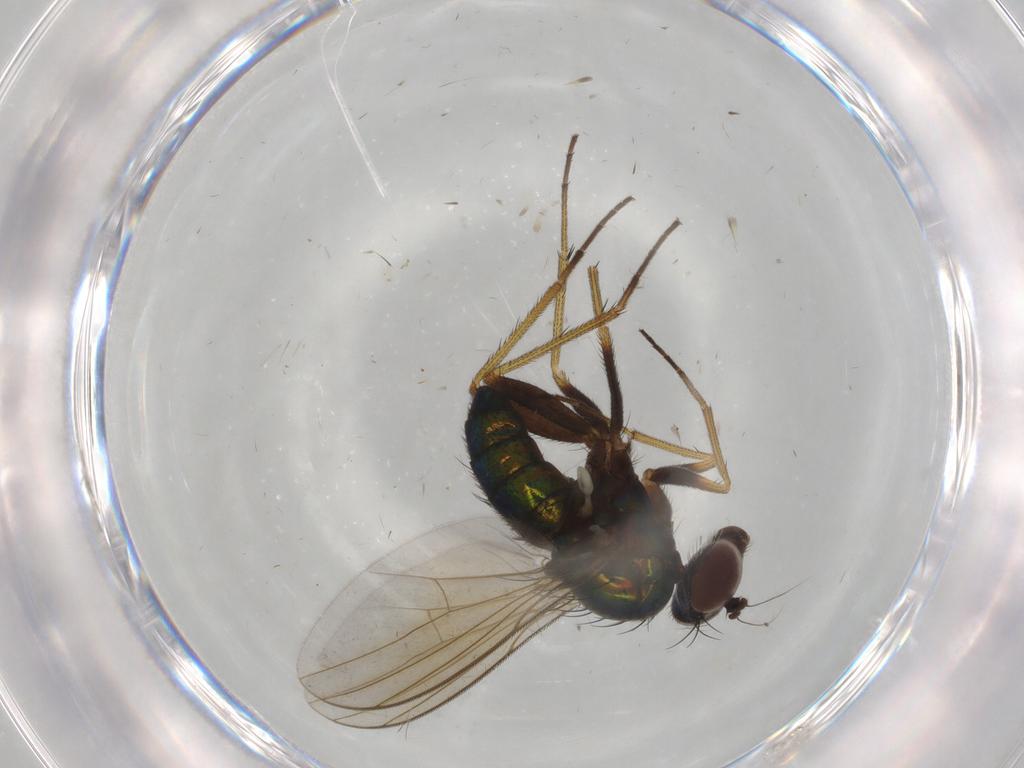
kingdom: Animalia
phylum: Arthropoda
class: Insecta
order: Diptera
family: Dolichopodidae
